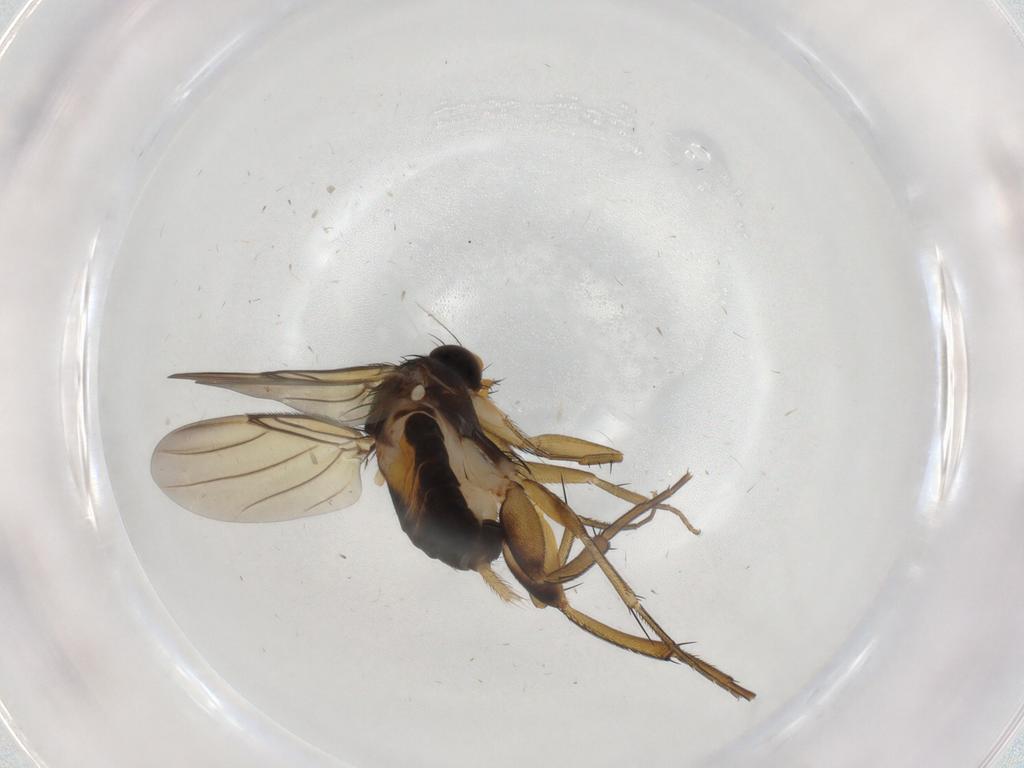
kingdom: Animalia
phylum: Arthropoda
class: Insecta
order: Diptera
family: Phoridae
